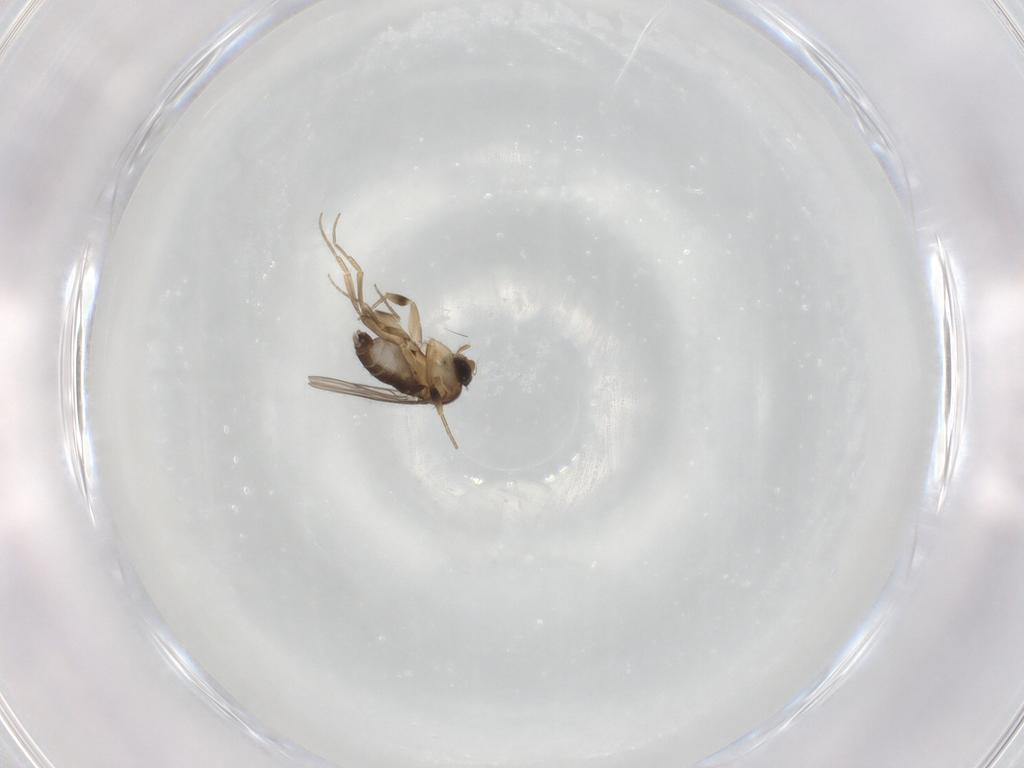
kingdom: Animalia
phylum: Arthropoda
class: Insecta
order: Diptera
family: Phoridae
